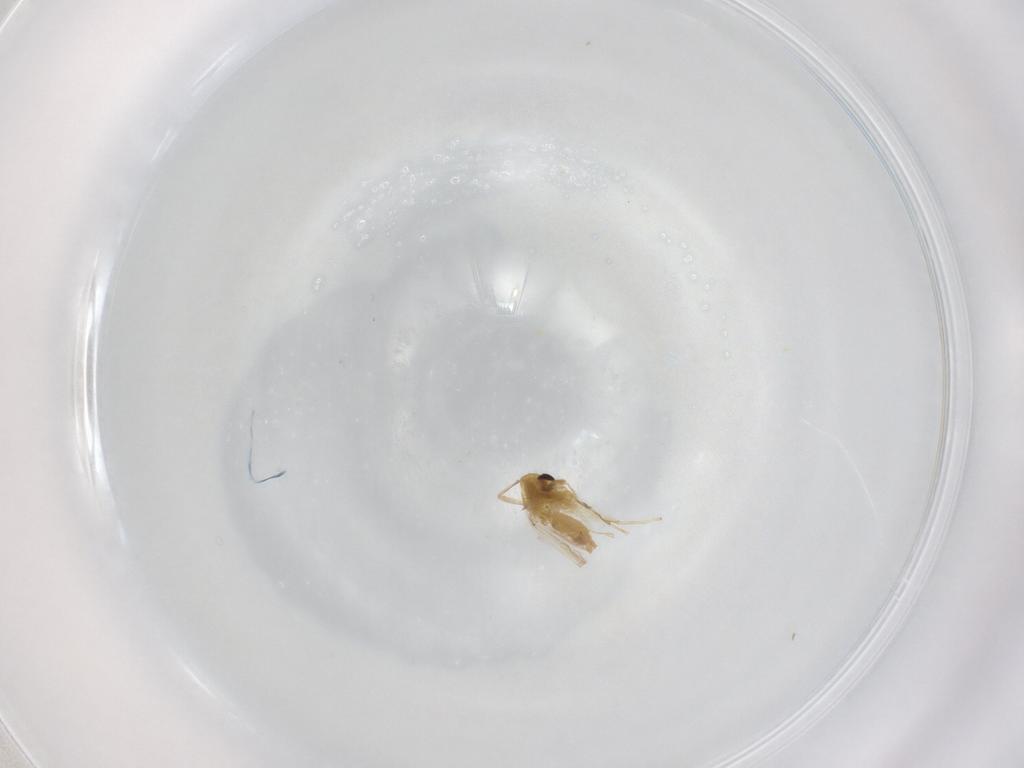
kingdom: Animalia
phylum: Arthropoda
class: Insecta
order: Diptera
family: Chironomidae
